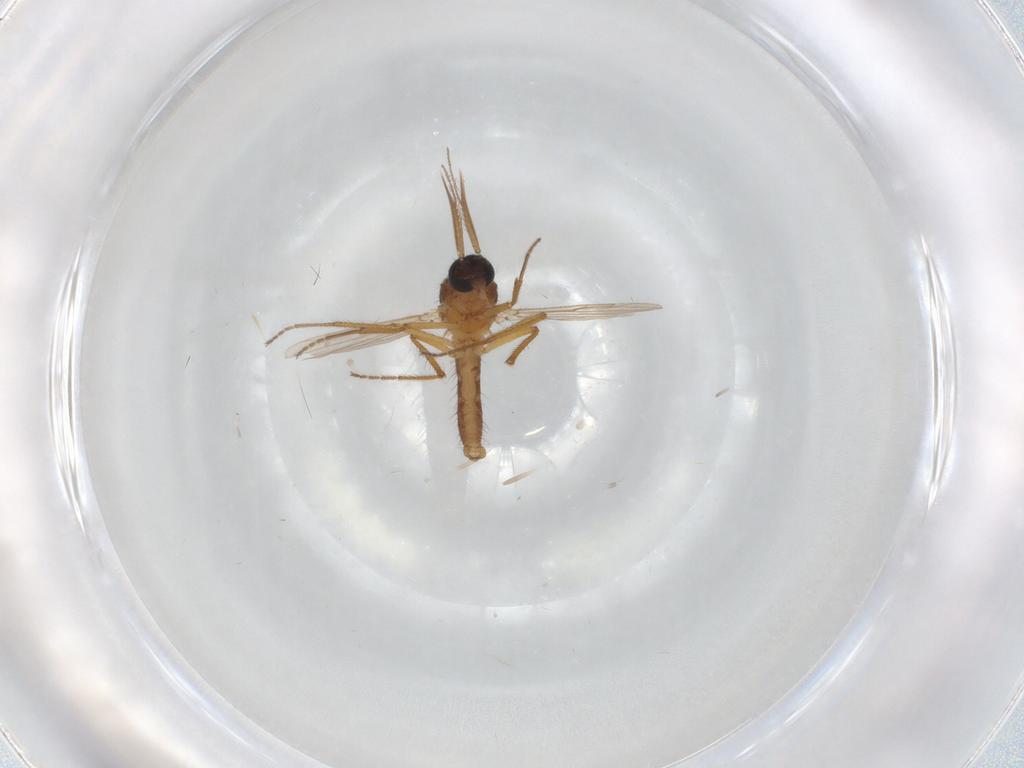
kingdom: Animalia
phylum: Arthropoda
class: Insecta
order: Diptera
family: Ceratopogonidae
